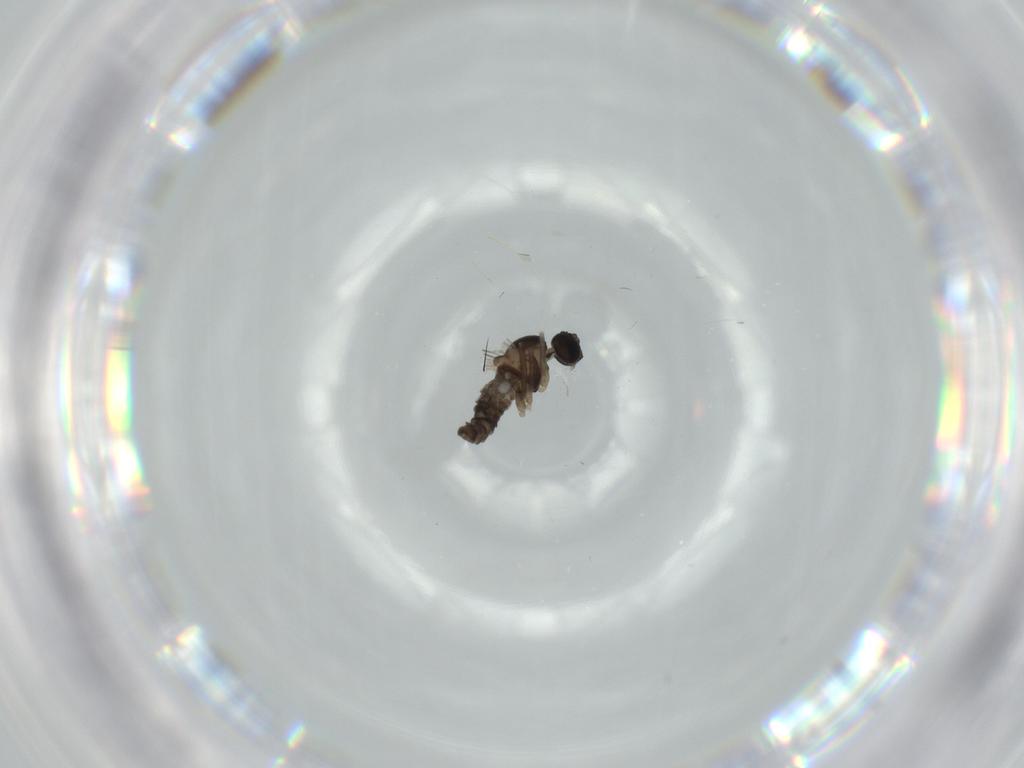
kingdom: Animalia
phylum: Arthropoda
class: Insecta
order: Diptera
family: Cecidomyiidae
